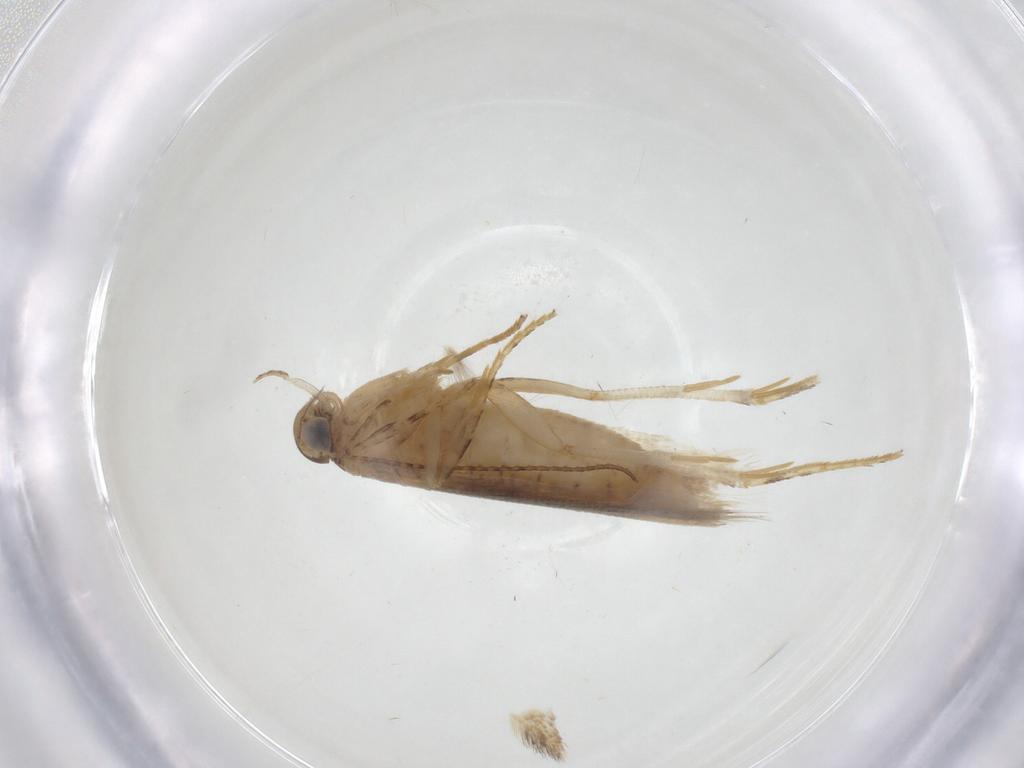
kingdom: Animalia
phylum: Arthropoda
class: Insecta
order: Lepidoptera
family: Gelechiidae
